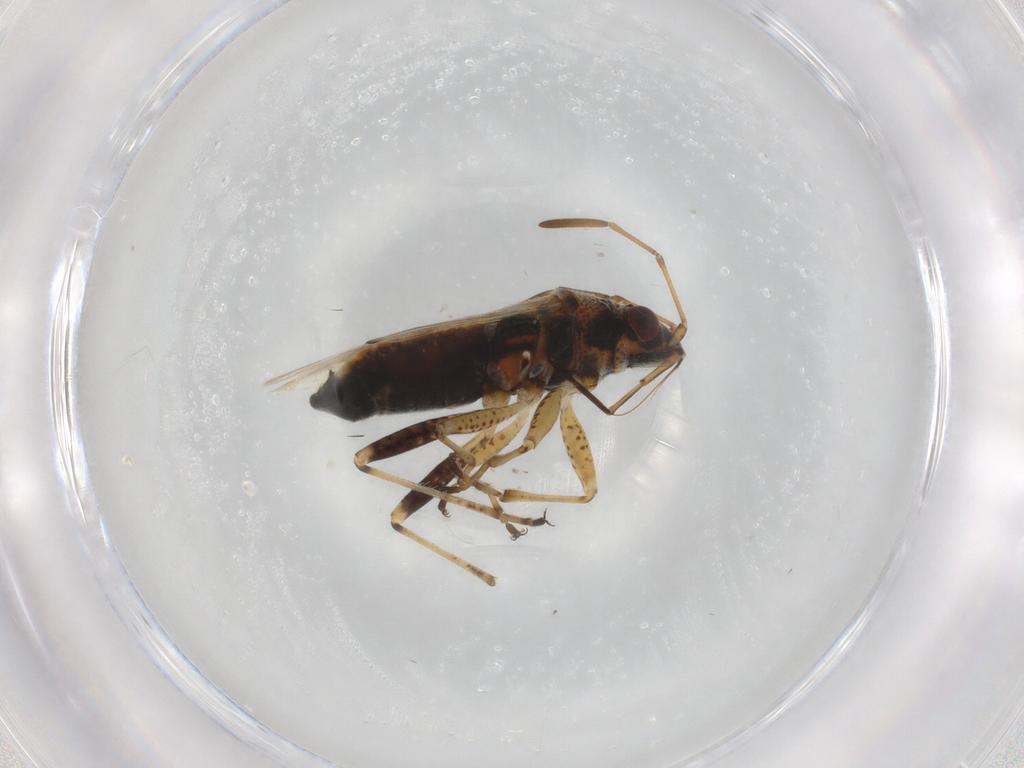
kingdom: Animalia
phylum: Arthropoda
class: Insecta
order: Hemiptera
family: Lygaeidae
